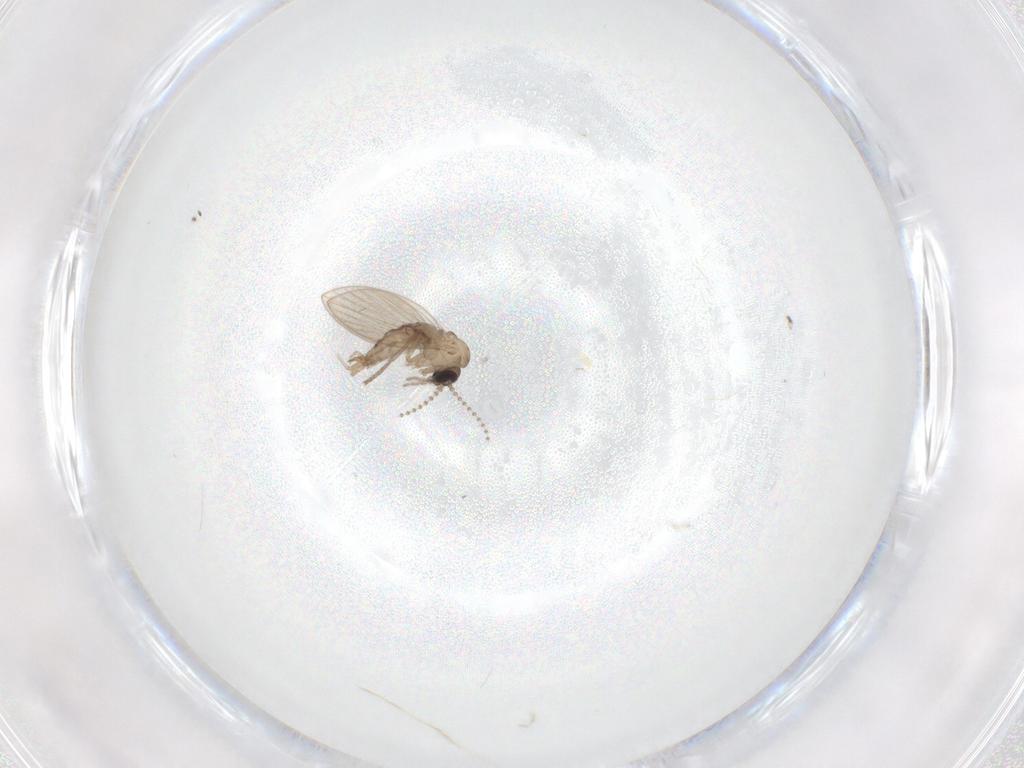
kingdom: Animalia
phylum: Arthropoda
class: Insecta
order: Diptera
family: Psychodidae
